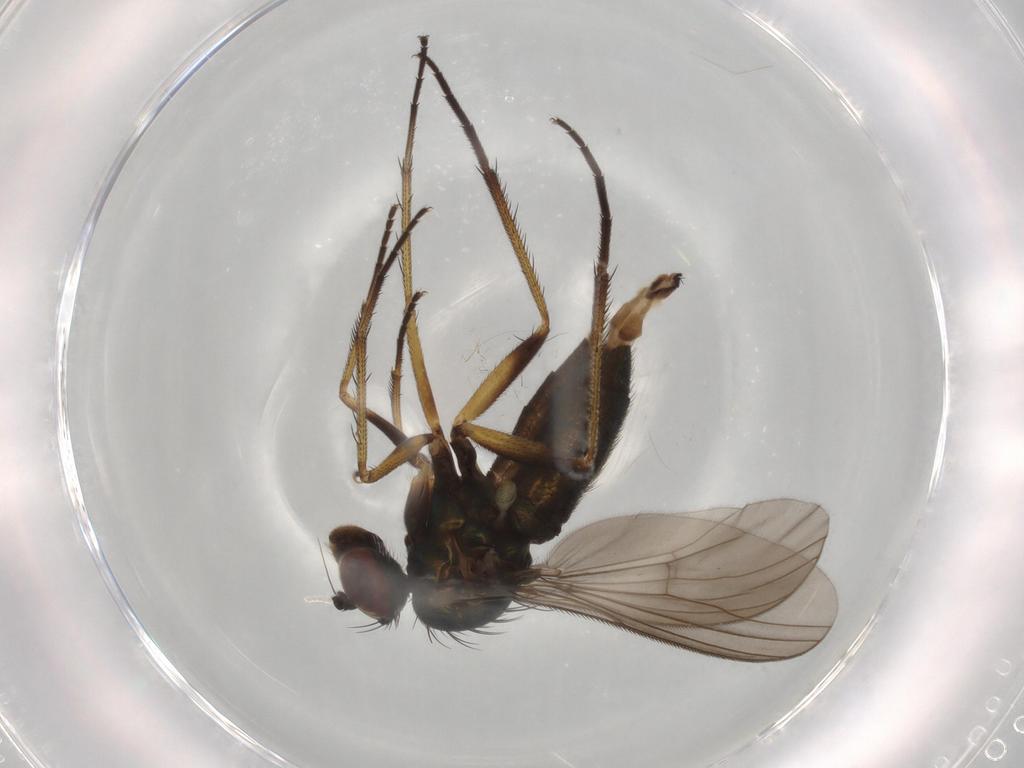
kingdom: Animalia
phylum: Arthropoda
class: Insecta
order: Diptera
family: Dolichopodidae
